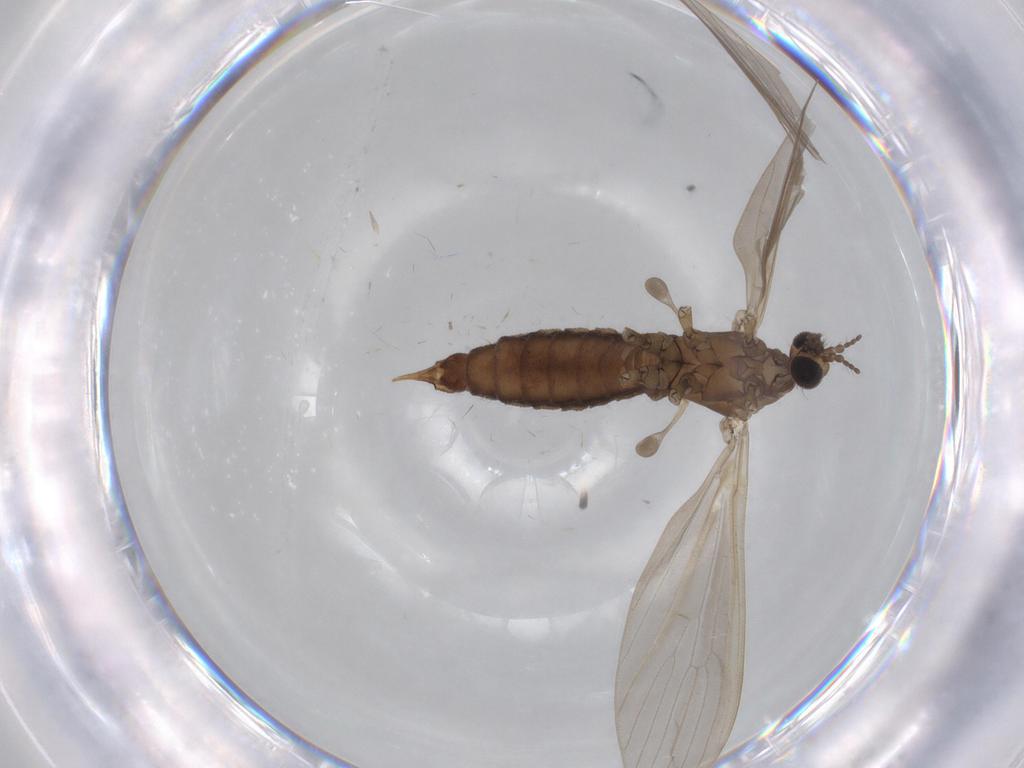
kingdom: Animalia
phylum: Arthropoda
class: Insecta
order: Diptera
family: Limoniidae
